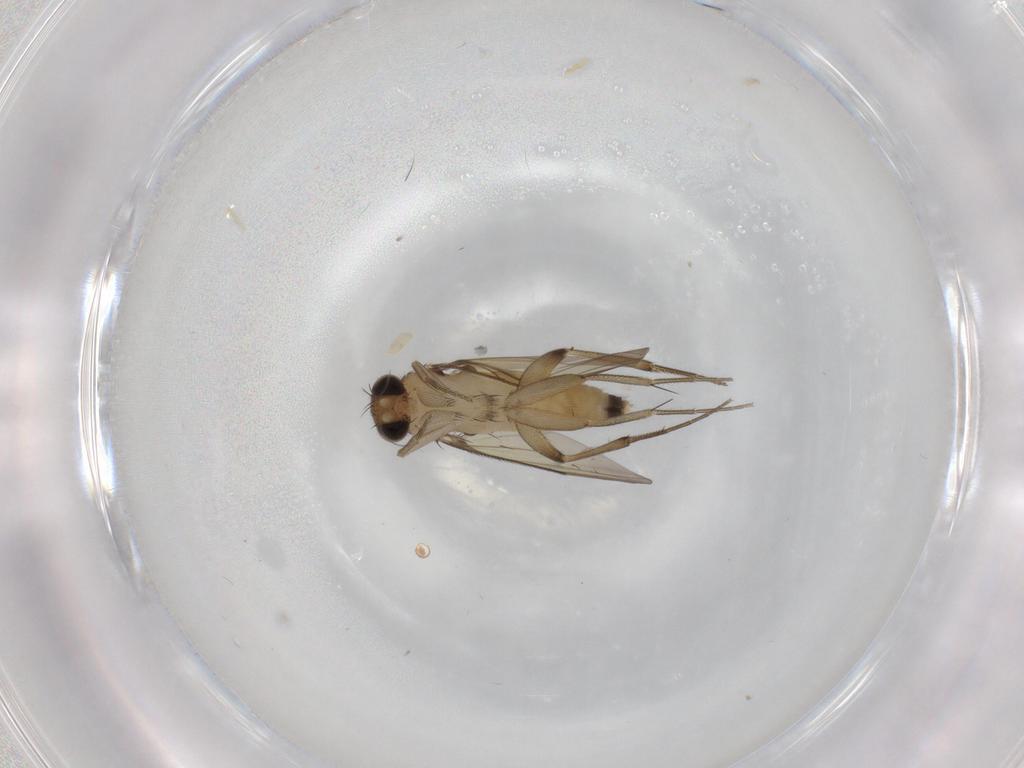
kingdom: Animalia
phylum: Arthropoda
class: Insecta
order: Diptera
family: Phoridae
